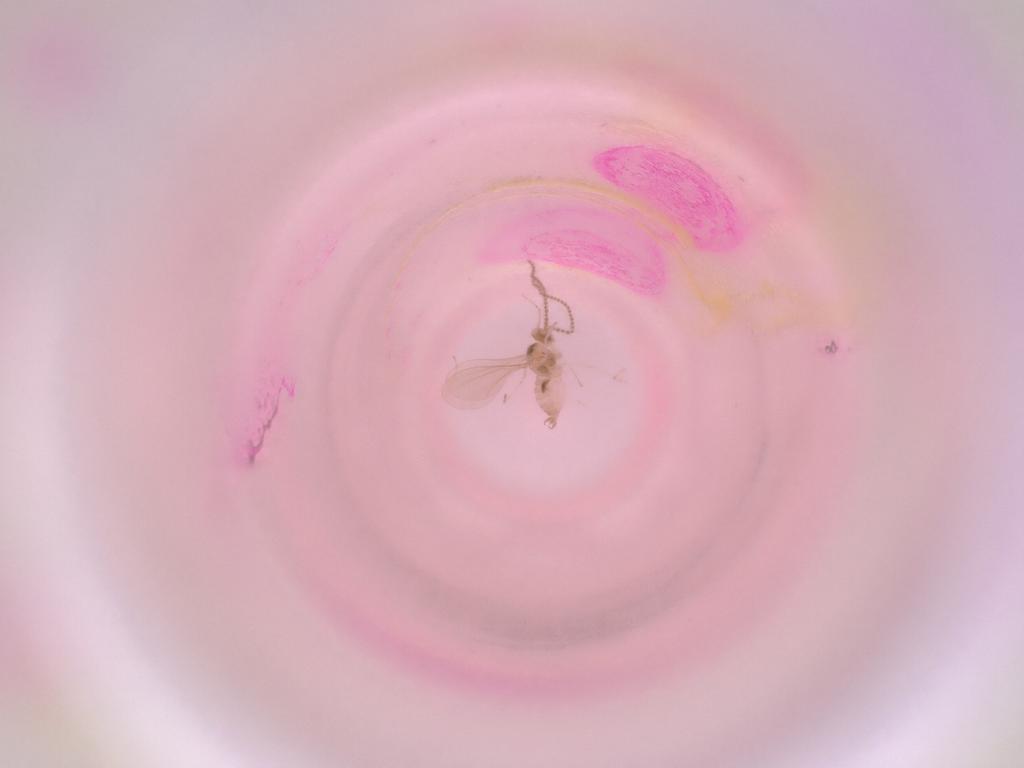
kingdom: Animalia
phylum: Arthropoda
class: Insecta
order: Diptera
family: Cecidomyiidae
